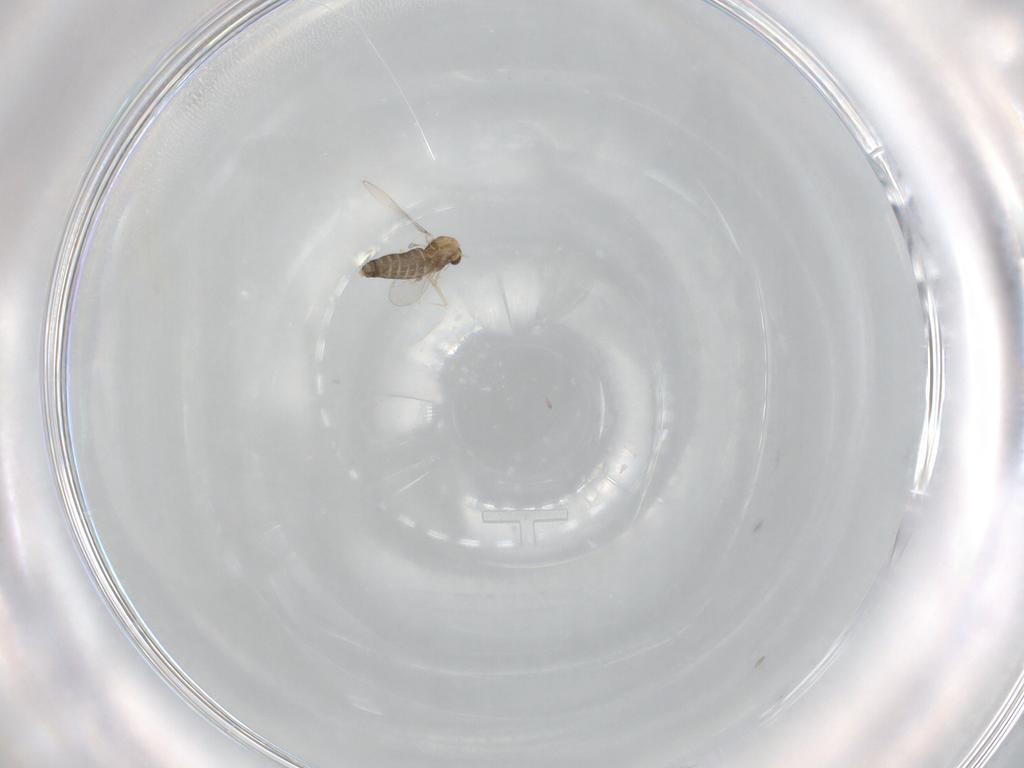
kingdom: Animalia
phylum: Arthropoda
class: Insecta
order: Diptera
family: Chironomidae
